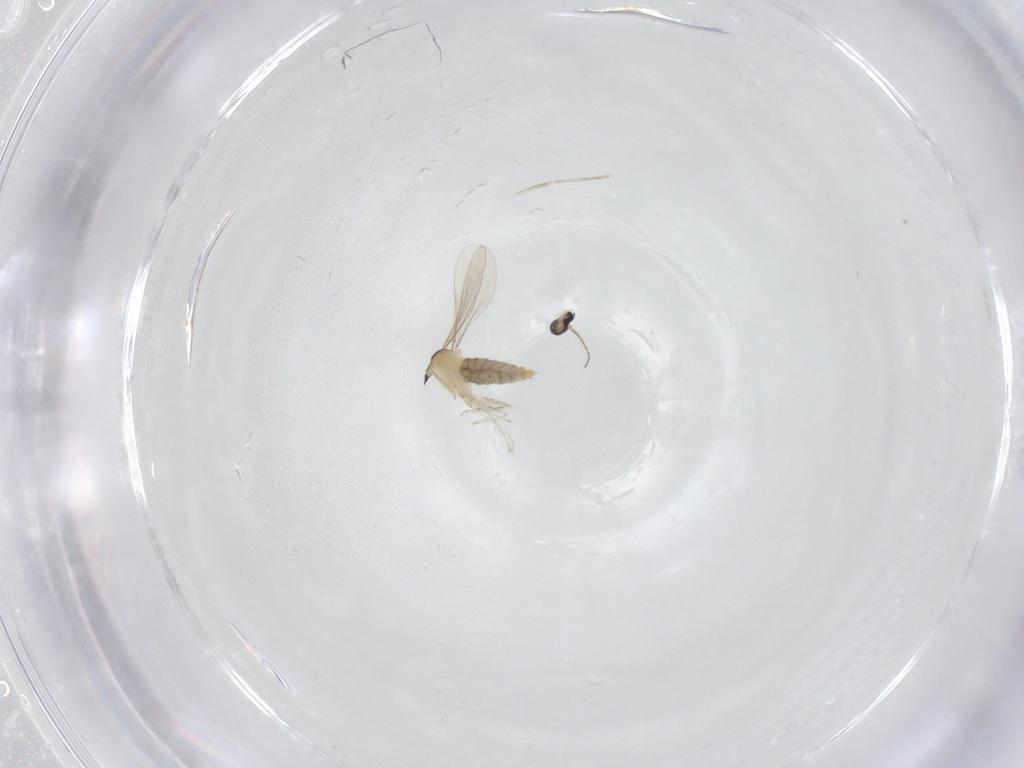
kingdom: Animalia
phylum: Arthropoda
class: Insecta
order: Diptera
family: Cecidomyiidae
